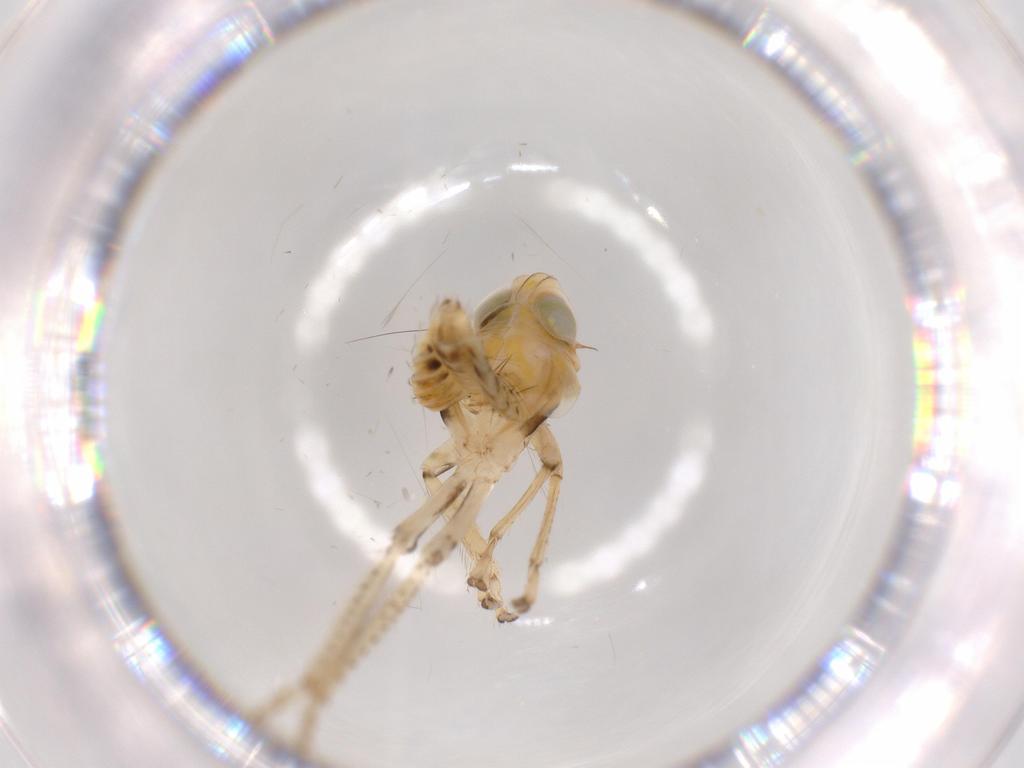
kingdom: Animalia
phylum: Arthropoda
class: Insecta
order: Hemiptera
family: Cicadellidae
